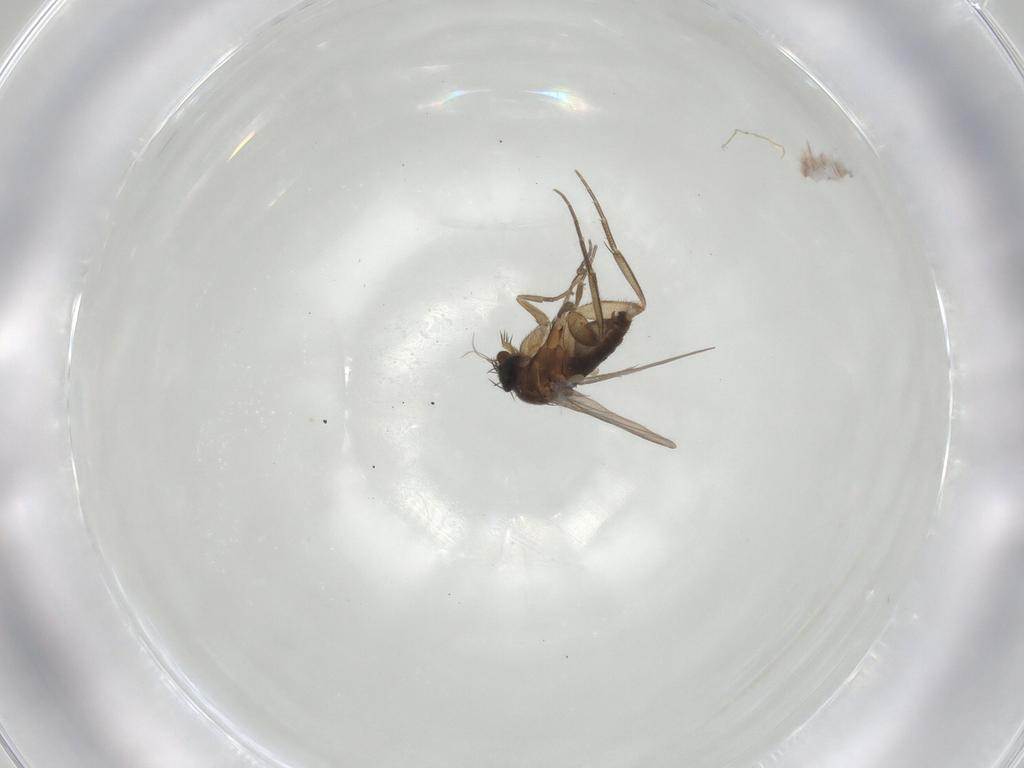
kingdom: Animalia
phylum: Arthropoda
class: Insecta
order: Diptera
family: Phoridae
